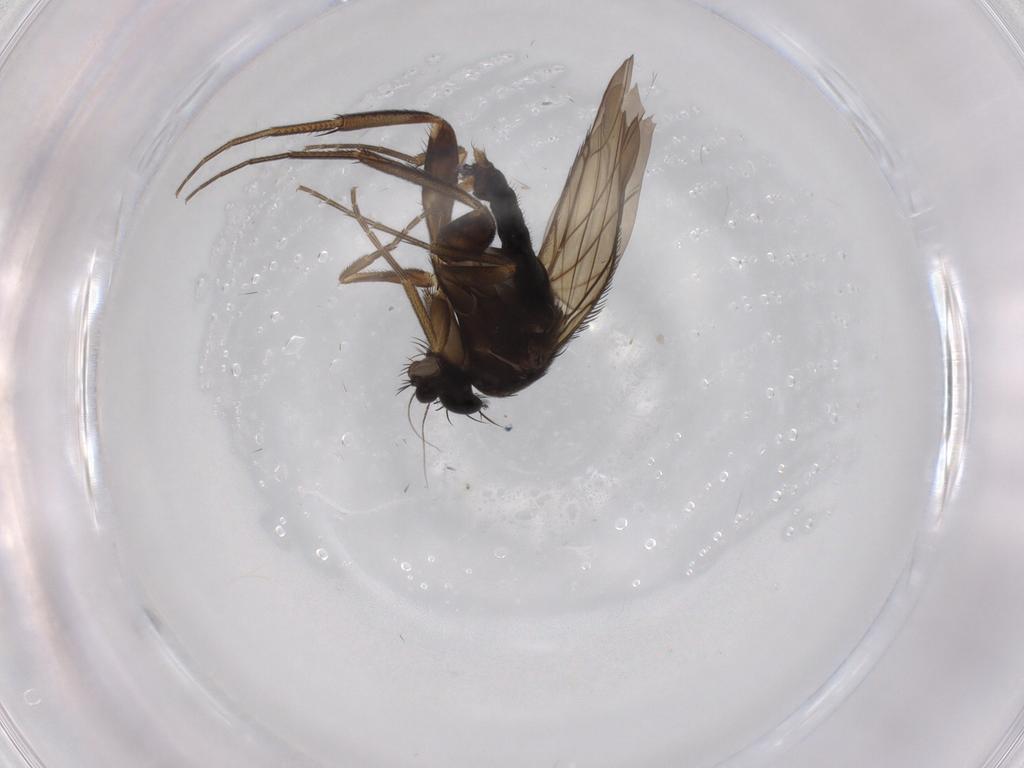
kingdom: Animalia
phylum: Arthropoda
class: Insecta
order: Diptera
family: Phoridae
